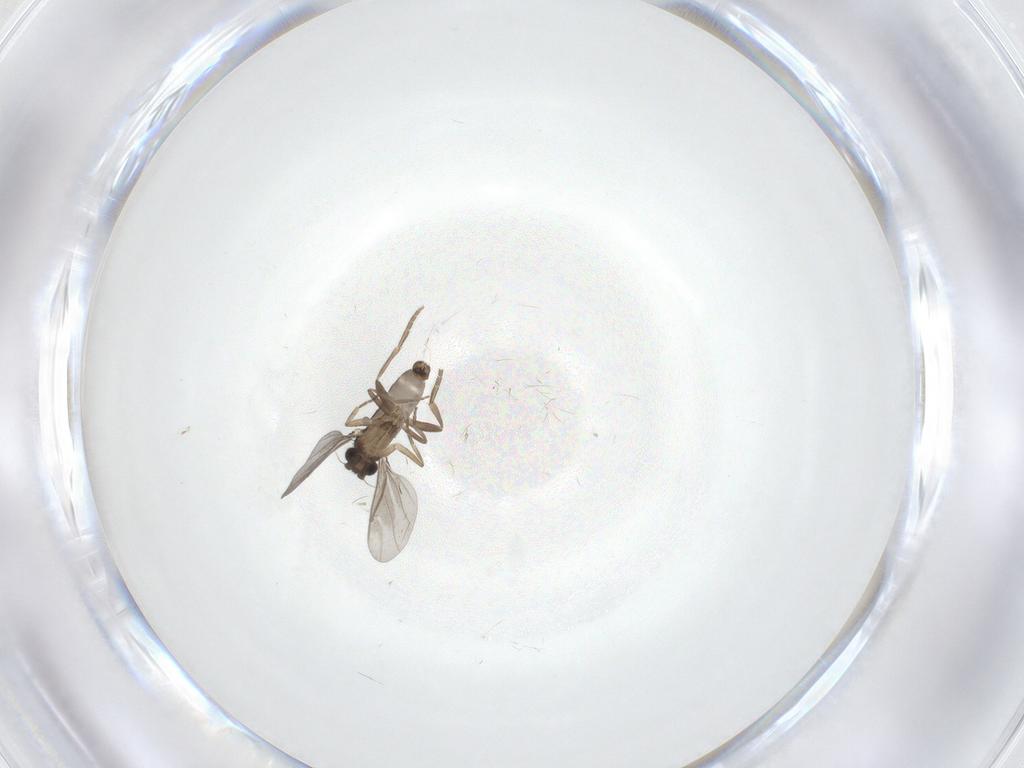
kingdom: Animalia
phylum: Arthropoda
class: Insecta
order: Diptera
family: Phoridae
